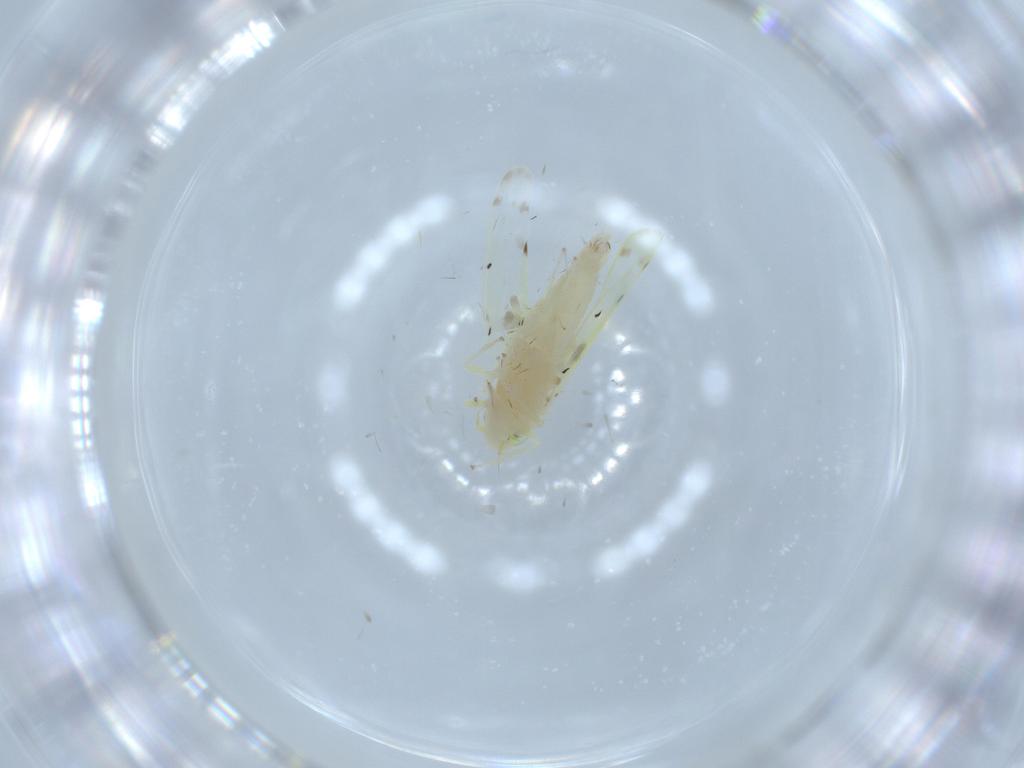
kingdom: Animalia
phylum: Arthropoda
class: Insecta
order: Hemiptera
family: Cicadellidae
